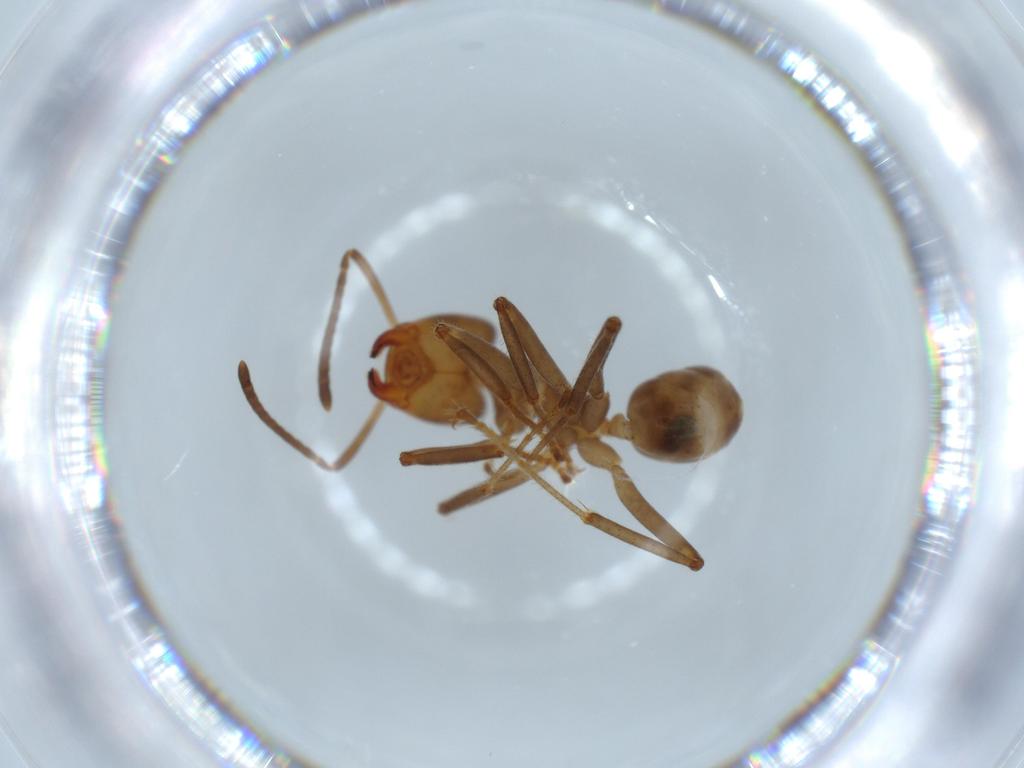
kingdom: Animalia
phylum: Arthropoda
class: Insecta
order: Hymenoptera
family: Formicidae
